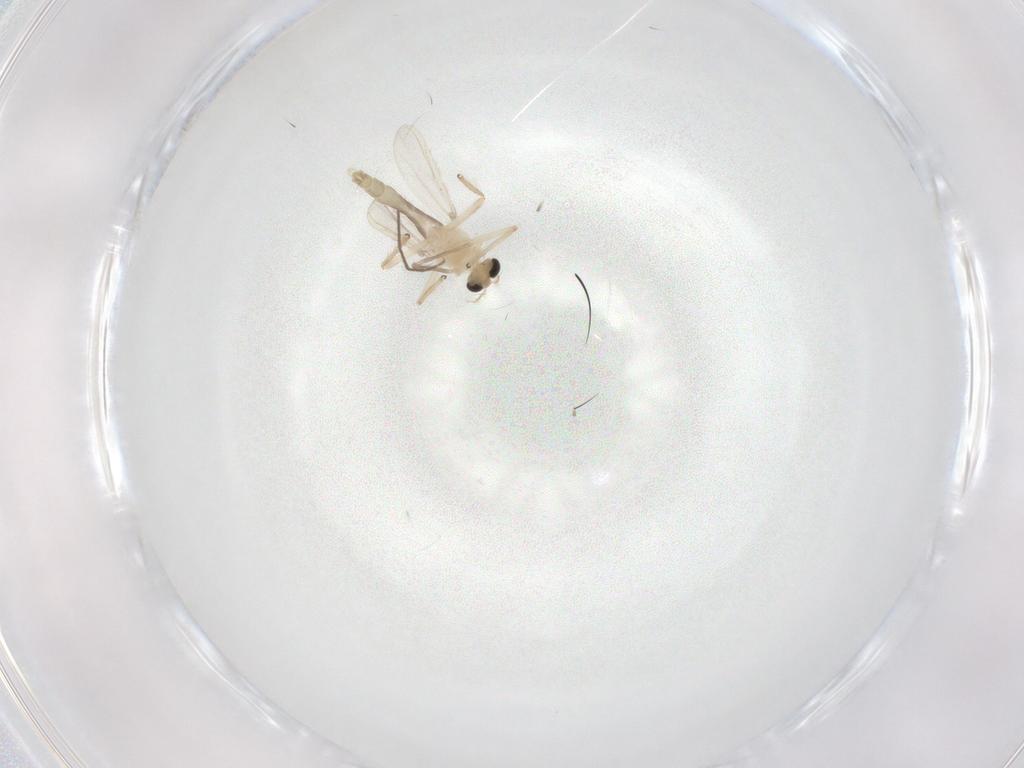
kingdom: Animalia
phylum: Arthropoda
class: Insecta
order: Diptera
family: Chironomidae
